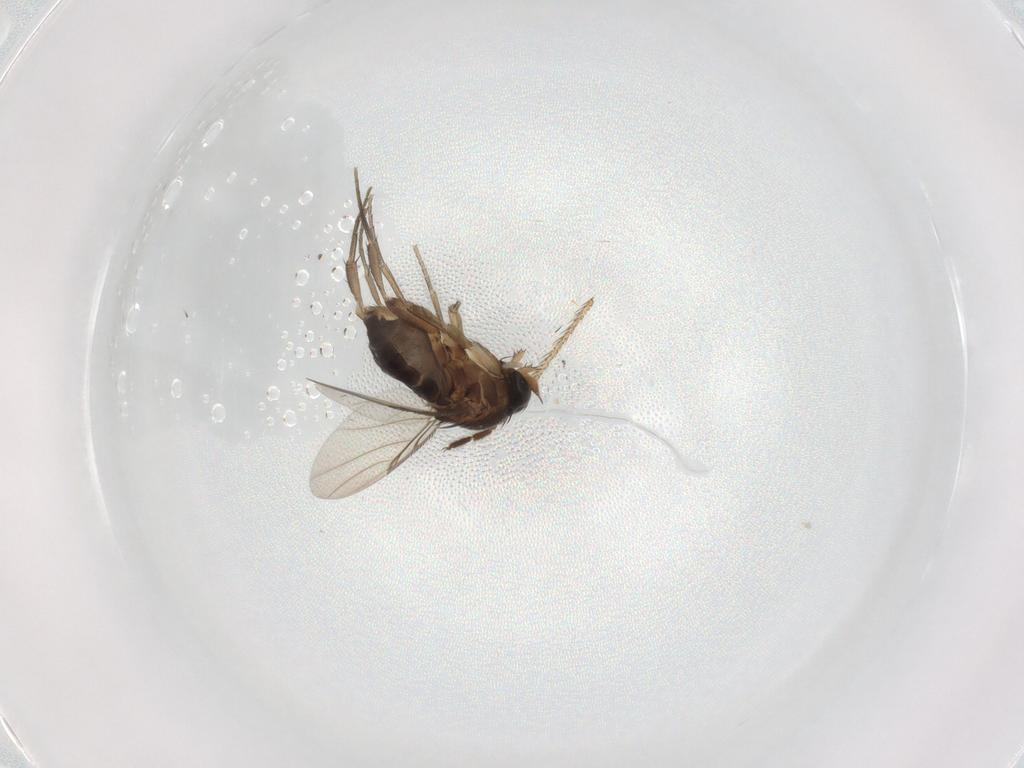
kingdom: Animalia
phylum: Arthropoda
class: Insecta
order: Diptera
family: Phoridae
